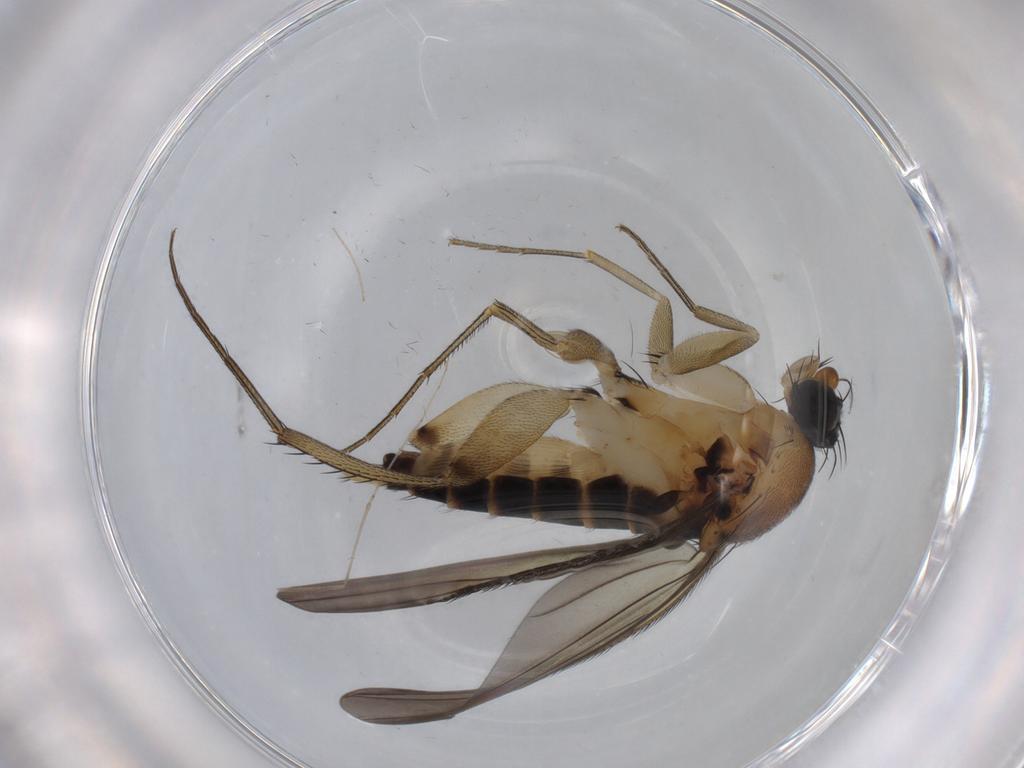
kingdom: Animalia
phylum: Arthropoda
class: Insecta
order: Diptera
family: Phoridae
